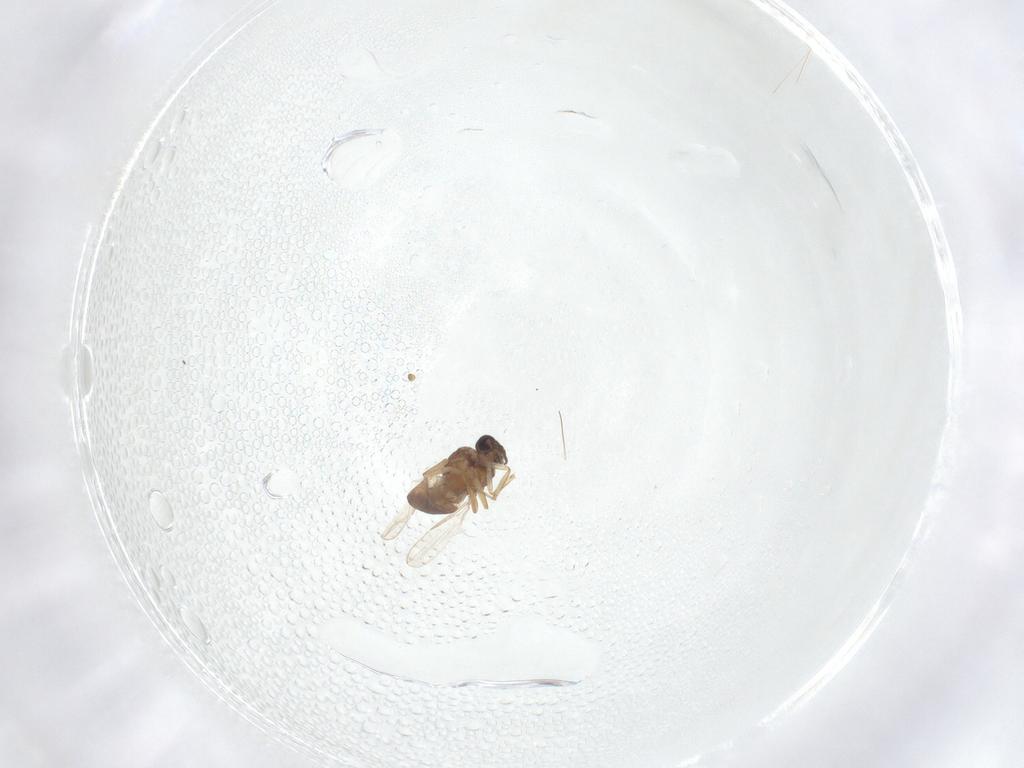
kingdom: Animalia
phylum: Arthropoda
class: Insecta
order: Diptera
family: Ceratopogonidae
